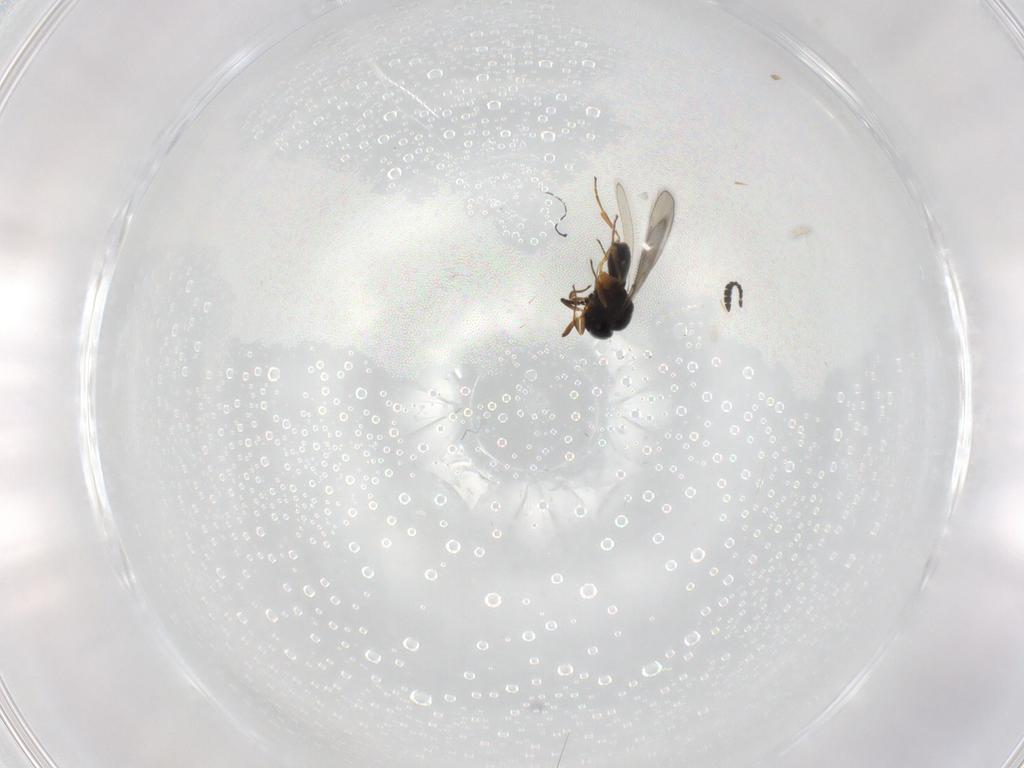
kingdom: Animalia
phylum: Arthropoda
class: Insecta
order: Hymenoptera
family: Scelionidae
